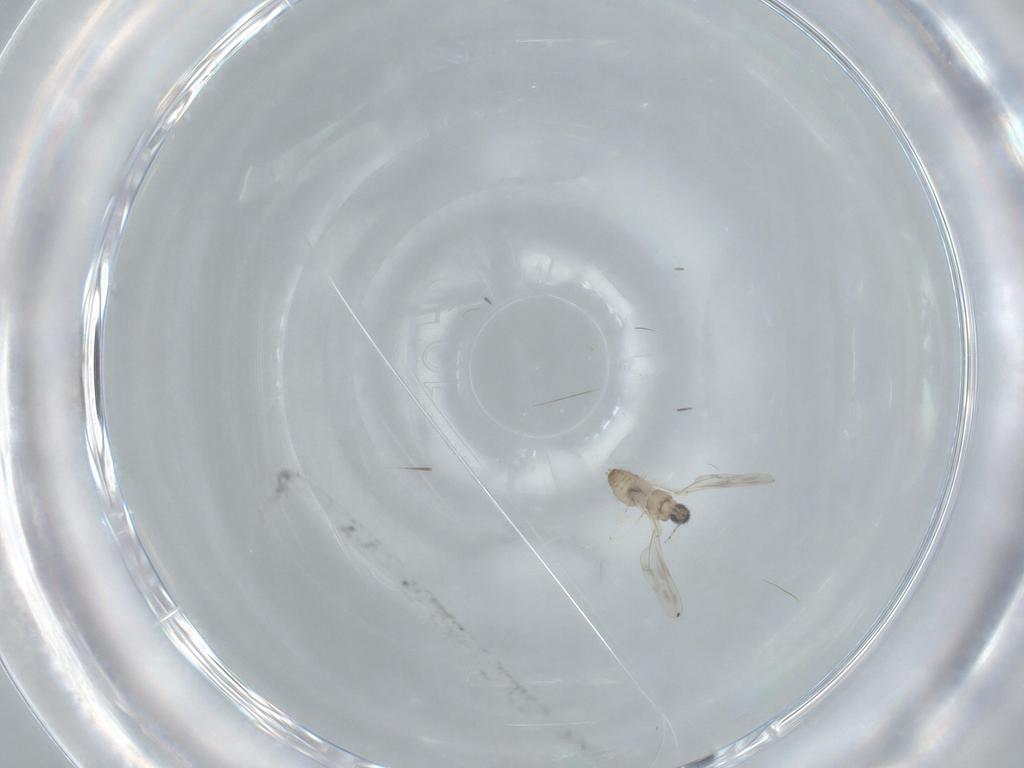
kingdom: Animalia
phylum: Arthropoda
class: Insecta
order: Diptera
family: Cecidomyiidae
